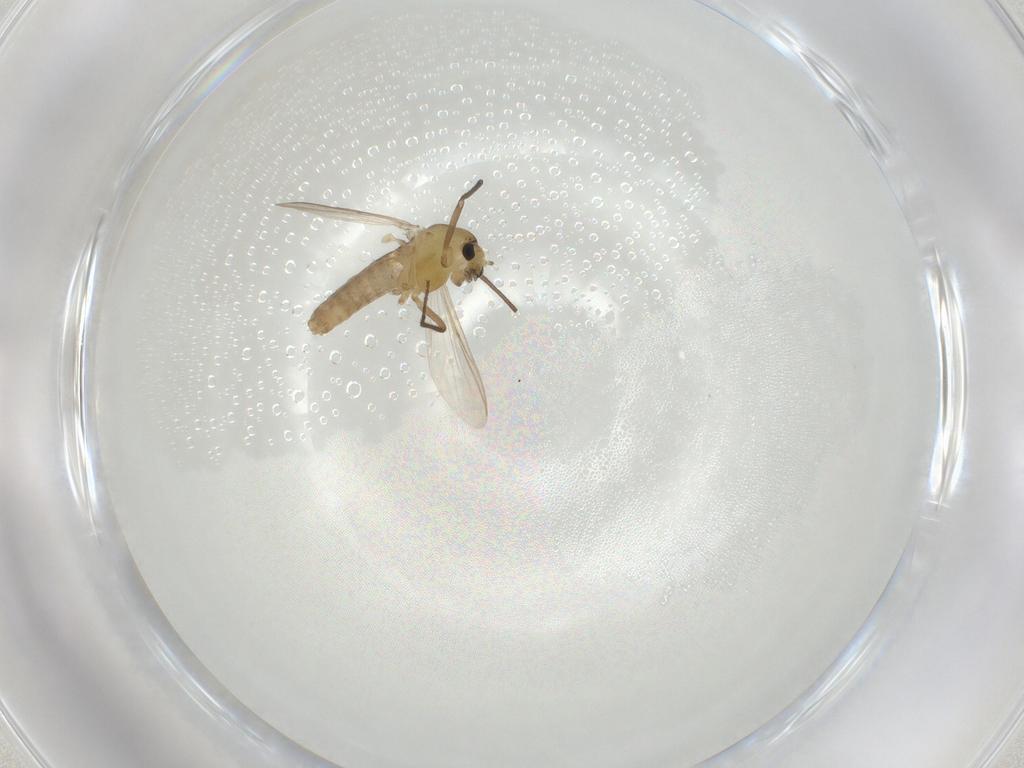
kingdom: Animalia
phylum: Arthropoda
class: Insecta
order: Diptera
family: Chironomidae
